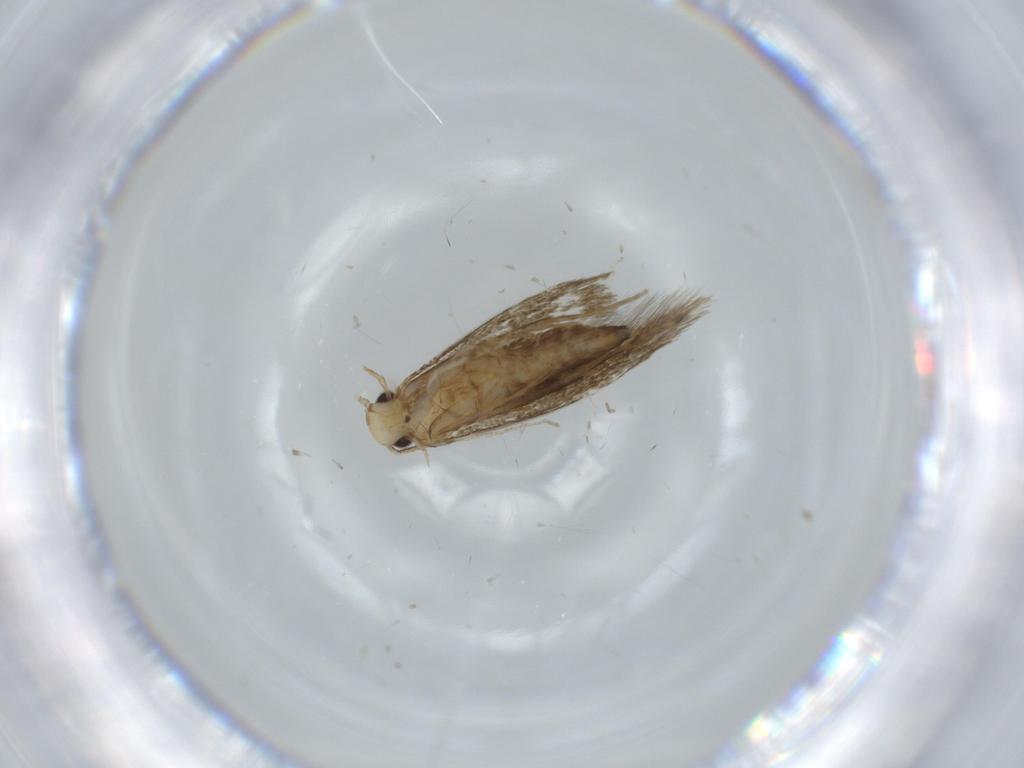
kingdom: Animalia
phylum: Arthropoda
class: Insecta
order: Lepidoptera
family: Tineidae
